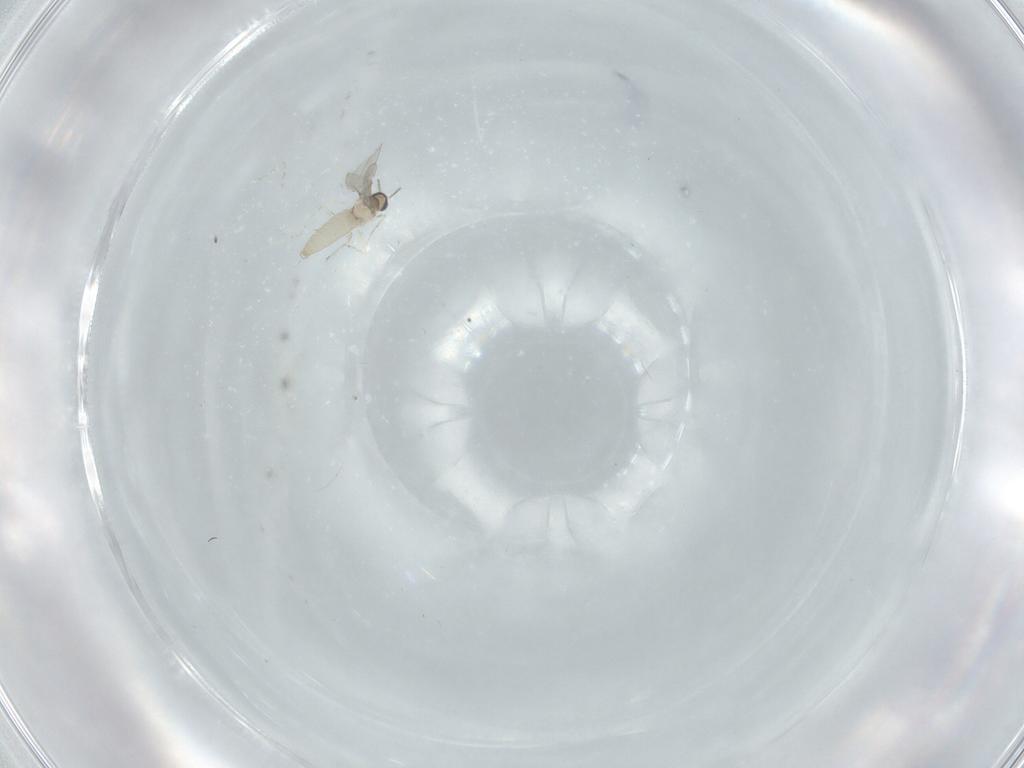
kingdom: Animalia
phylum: Arthropoda
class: Insecta
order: Diptera
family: Cecidomyiidae
